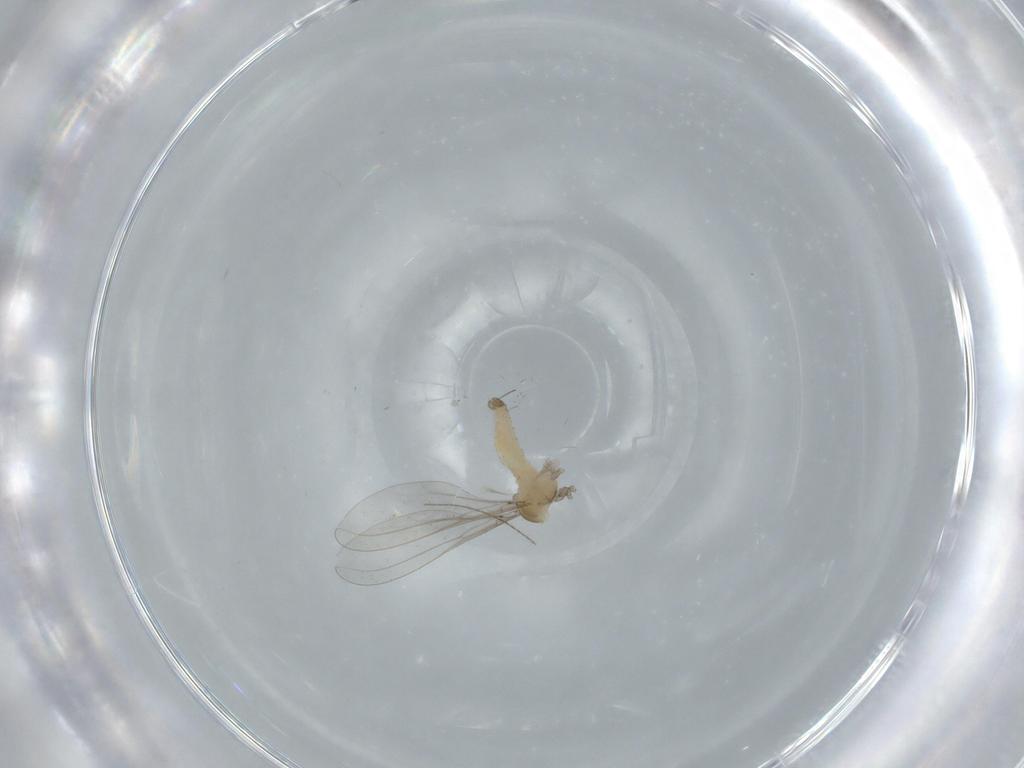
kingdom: Animalia
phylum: Arthropoda
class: Insecta
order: Diptera
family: Cecidomyiidae
